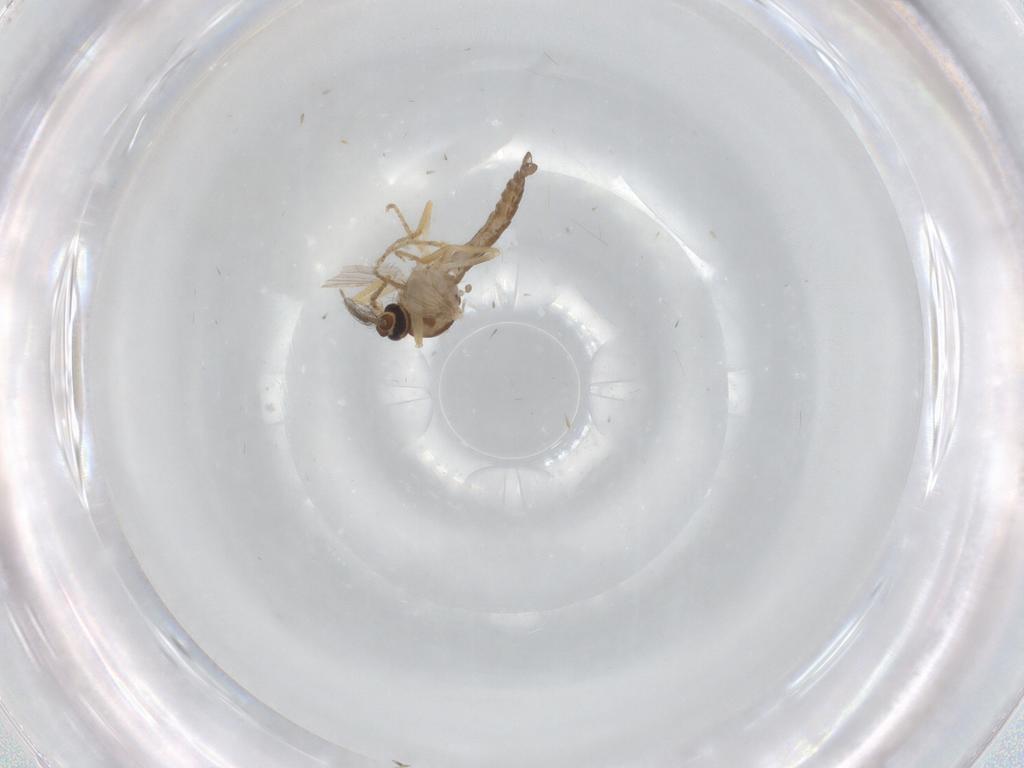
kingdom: Animalia
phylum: Arthropoda
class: Insecta
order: Diptera
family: Ceratopogonidae
